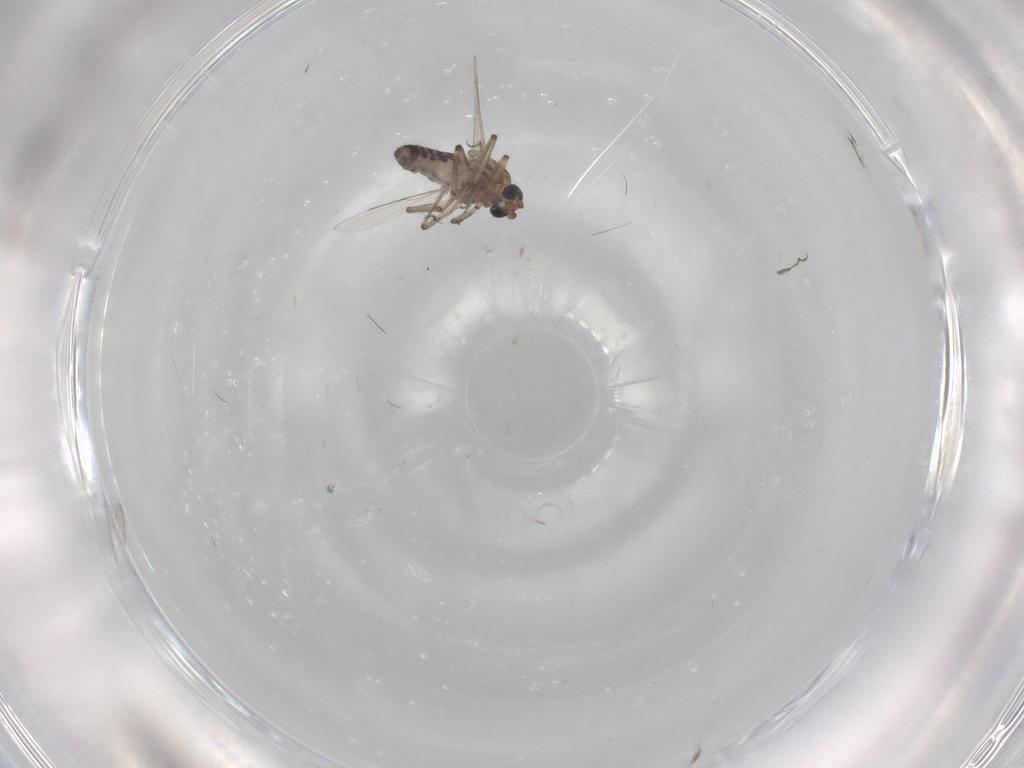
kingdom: Animalia
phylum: Arthropoda
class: Insecta
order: Diptera
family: Ceratopogonidae
